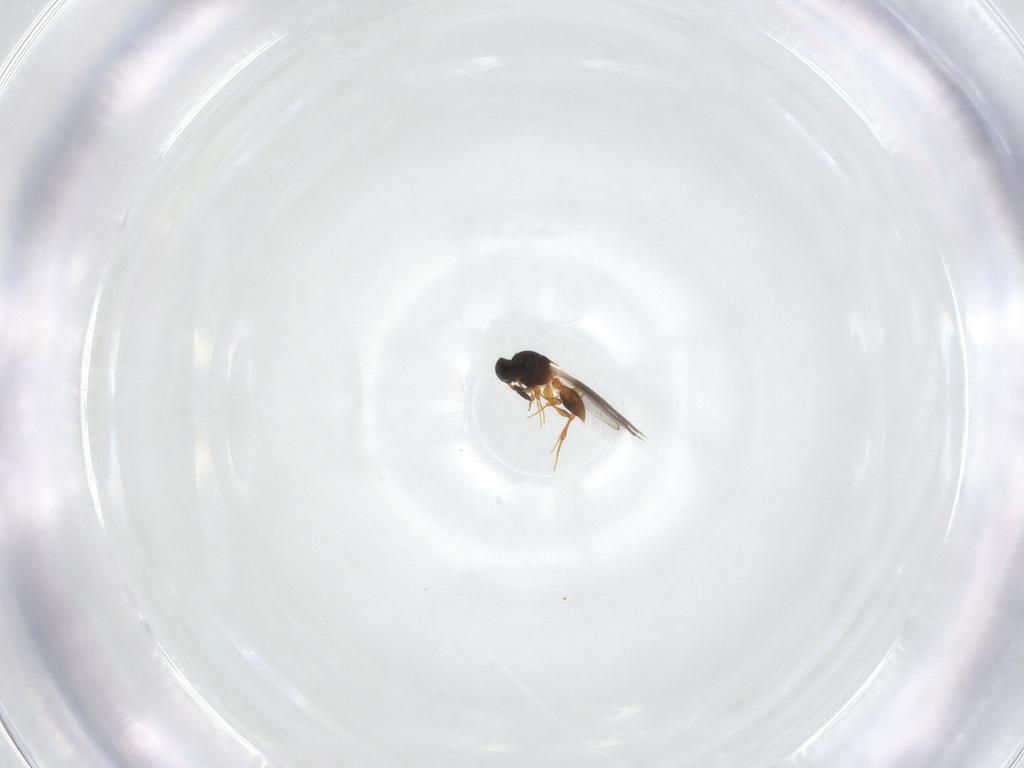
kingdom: Animalia
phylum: Arthropoda
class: Insecta
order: Hymenoptera
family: Platygastridae
